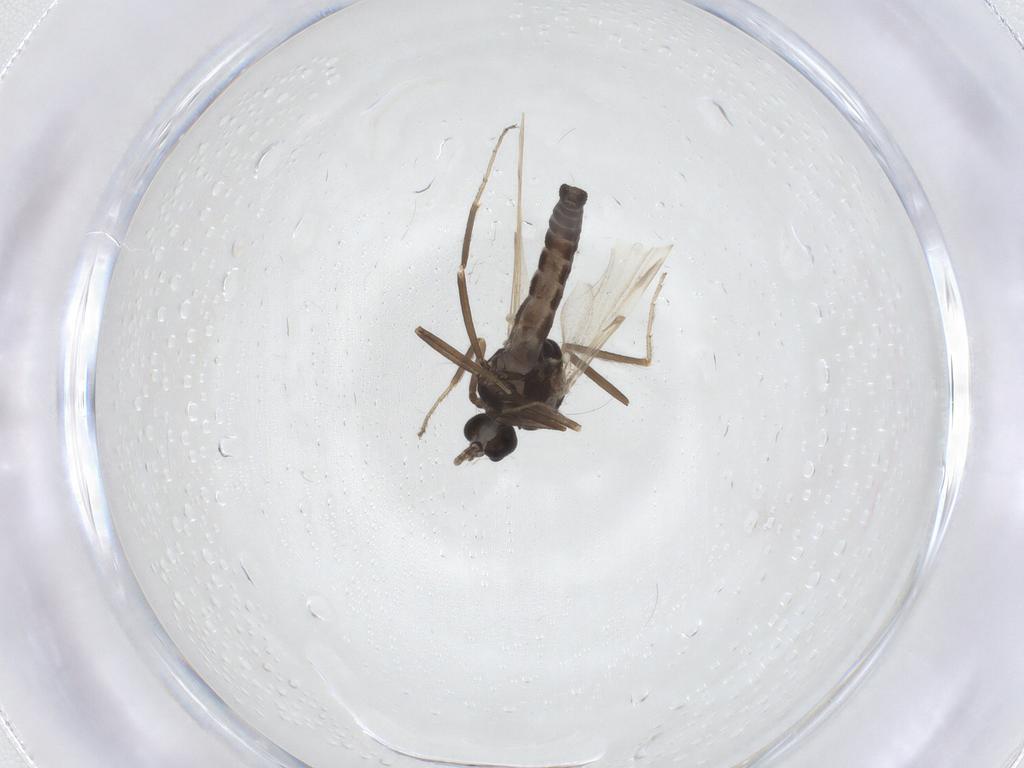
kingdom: Animalia
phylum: Arthropoda
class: Insecta
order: Diptera
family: Ceratopogonidae
